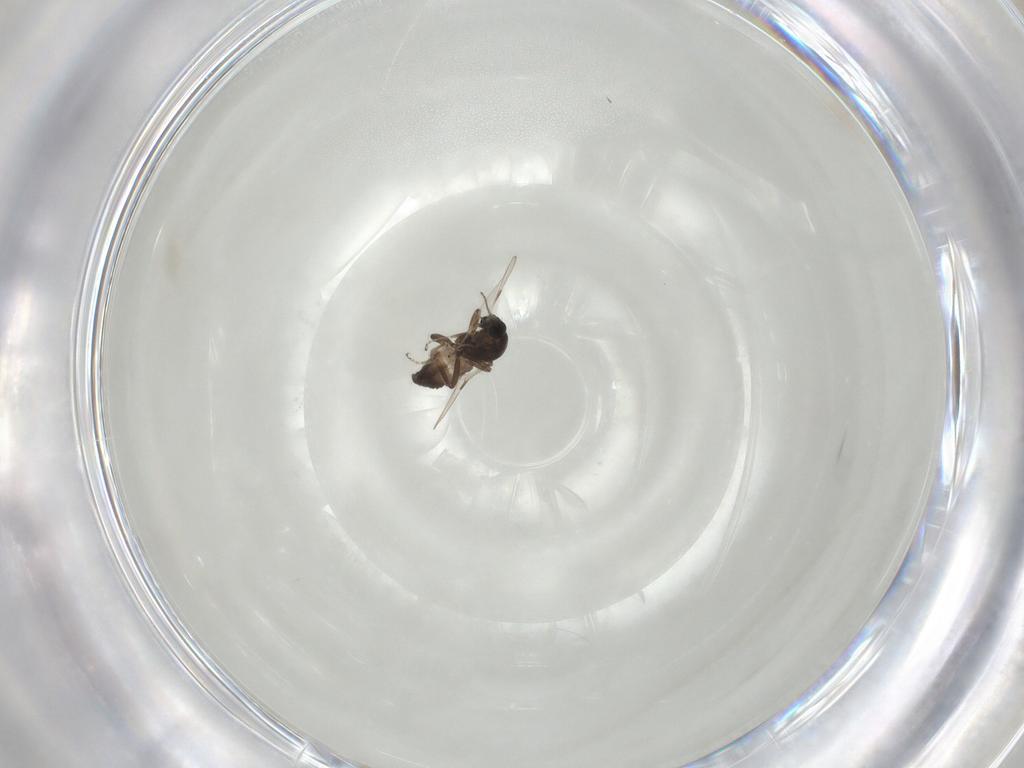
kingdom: Animalia
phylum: Arthropoda
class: Insecta
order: Diptera
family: Ceratopogonidae
